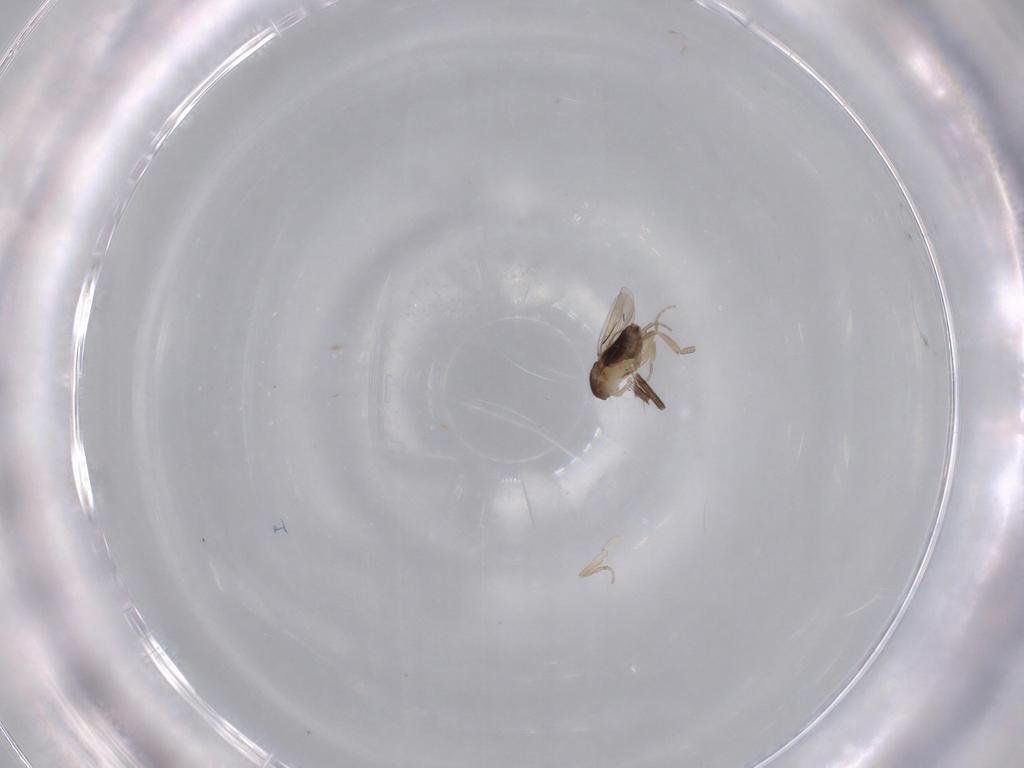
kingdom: Animalia
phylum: Arthropoda
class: Insecta
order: Diptera
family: Phoridae
